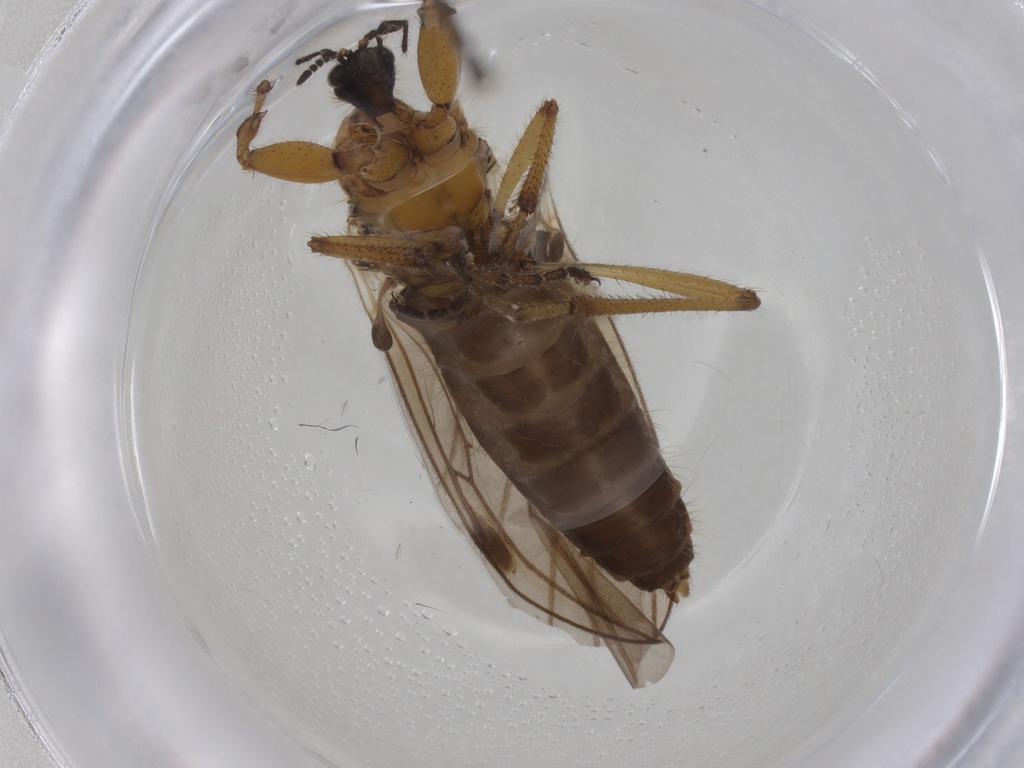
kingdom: Animalia
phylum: Arthropoda
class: Insecta
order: Diptera
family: Bibionidae
